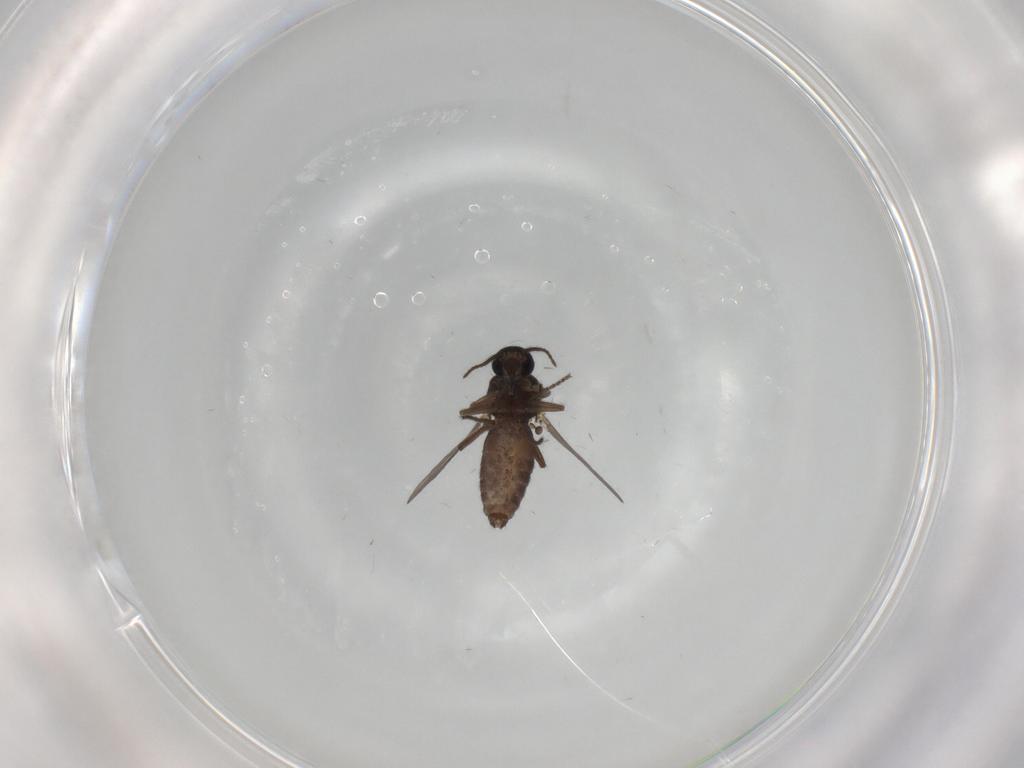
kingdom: Animalia
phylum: Arthropoda
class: Insecta
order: Diptera
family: Ceratopogonidae
